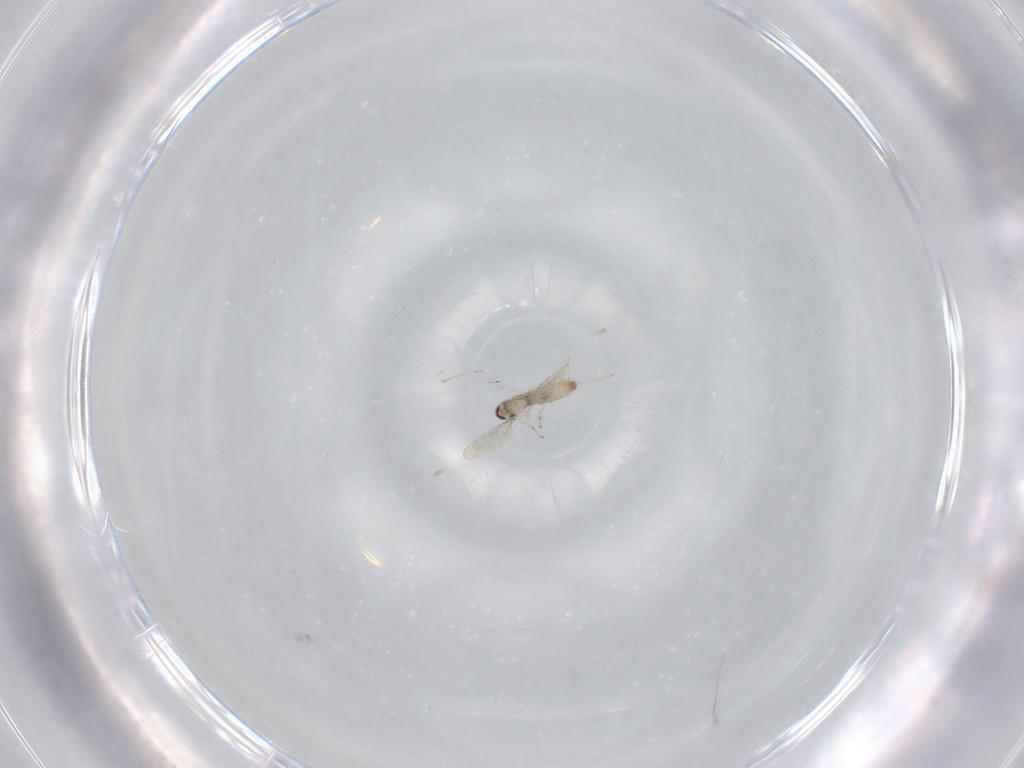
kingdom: Animalia
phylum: Arthropoda
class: Insecta
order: Diptera
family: Cecidomyiidae
